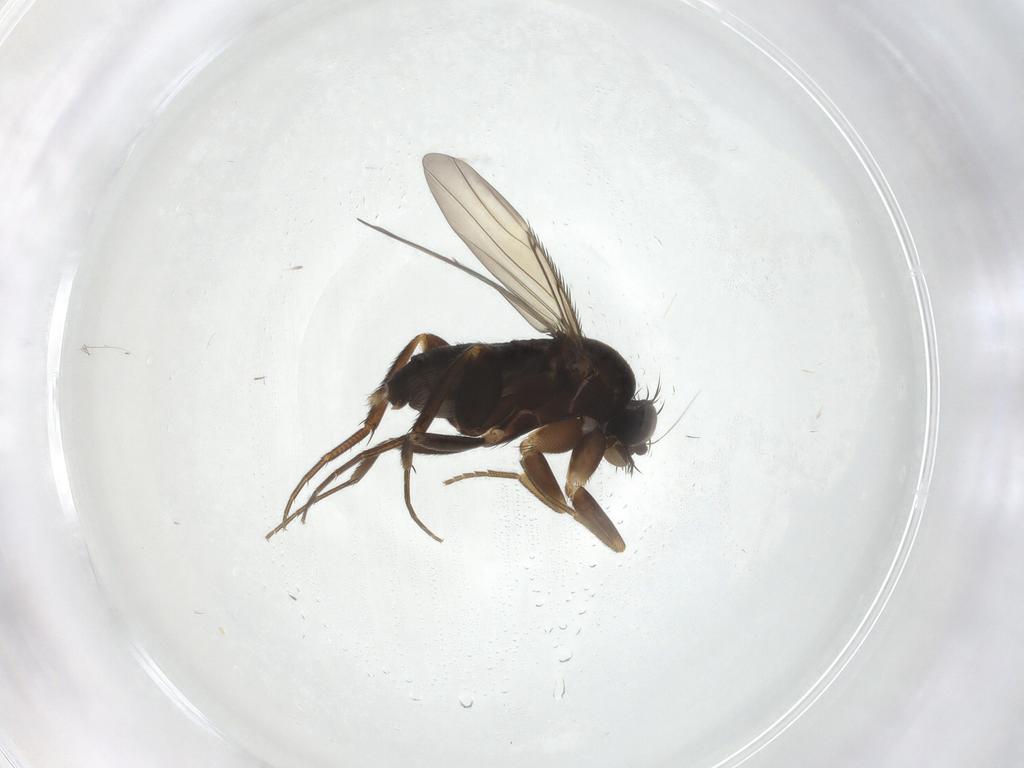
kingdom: Animalia
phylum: Arthropoda
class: Insecta
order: Diptera
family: Phoridae
